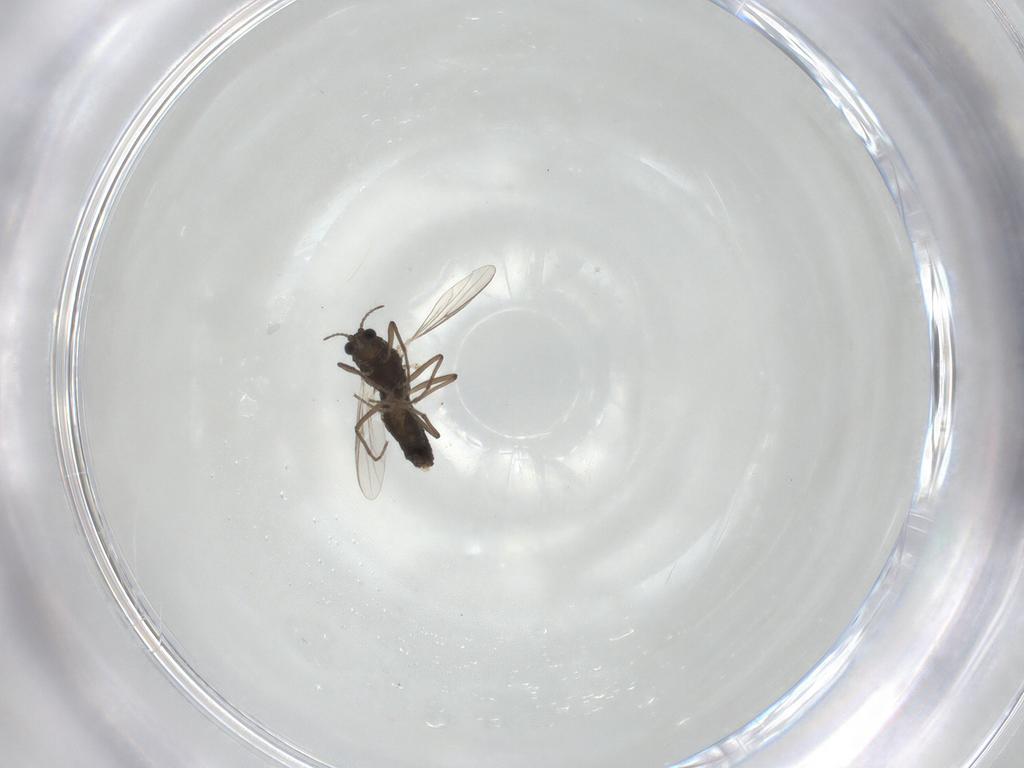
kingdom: Animalia
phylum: Arthropoda
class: Insecta
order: Diptera
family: Chironomidae
